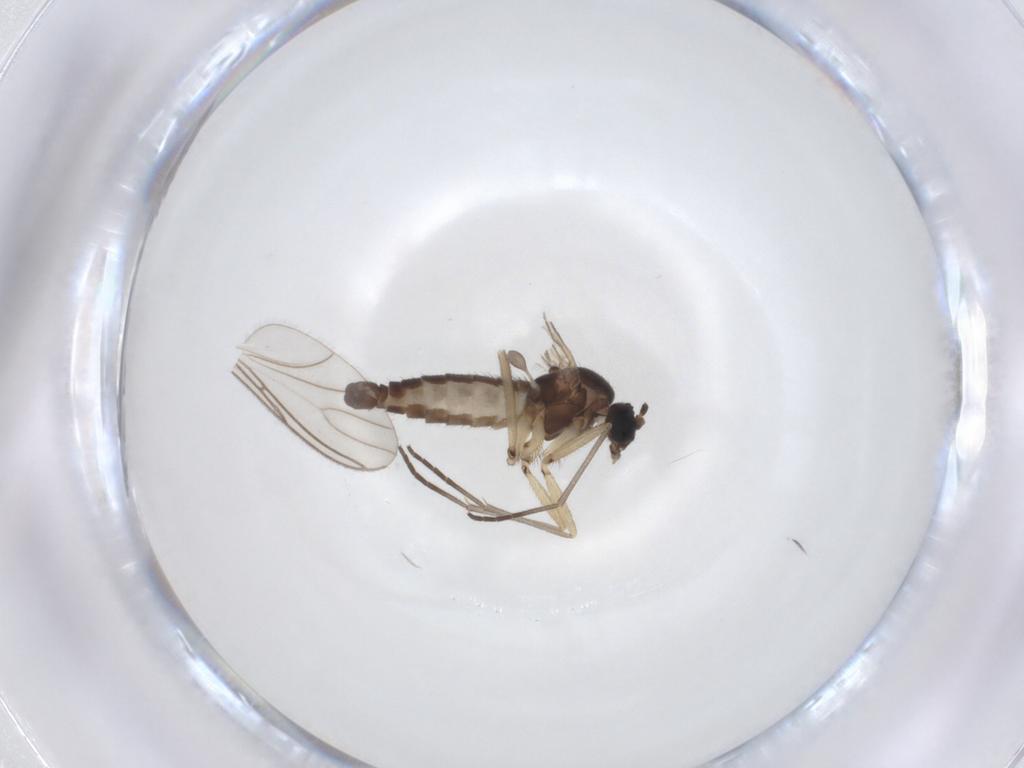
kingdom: Animalia
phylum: Arthropoda
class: Insecta
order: Diptera
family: Sciaridae
